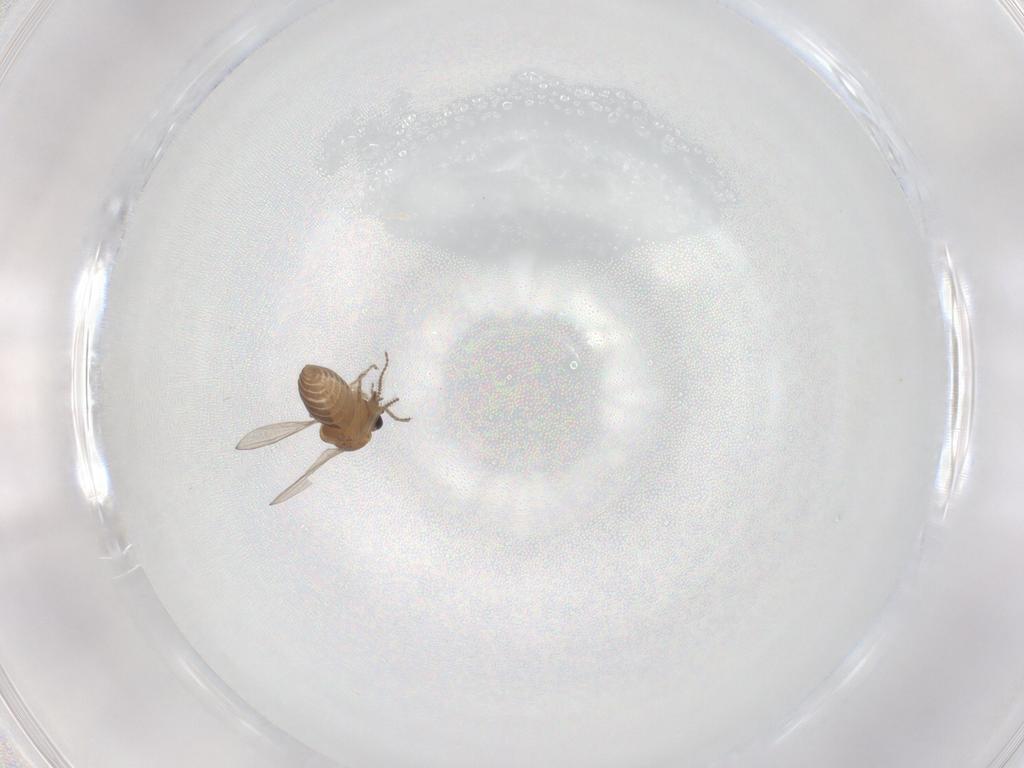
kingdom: Animalia
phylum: Arthropoda
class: Insecta
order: Diptera
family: Ceratopogonidae
